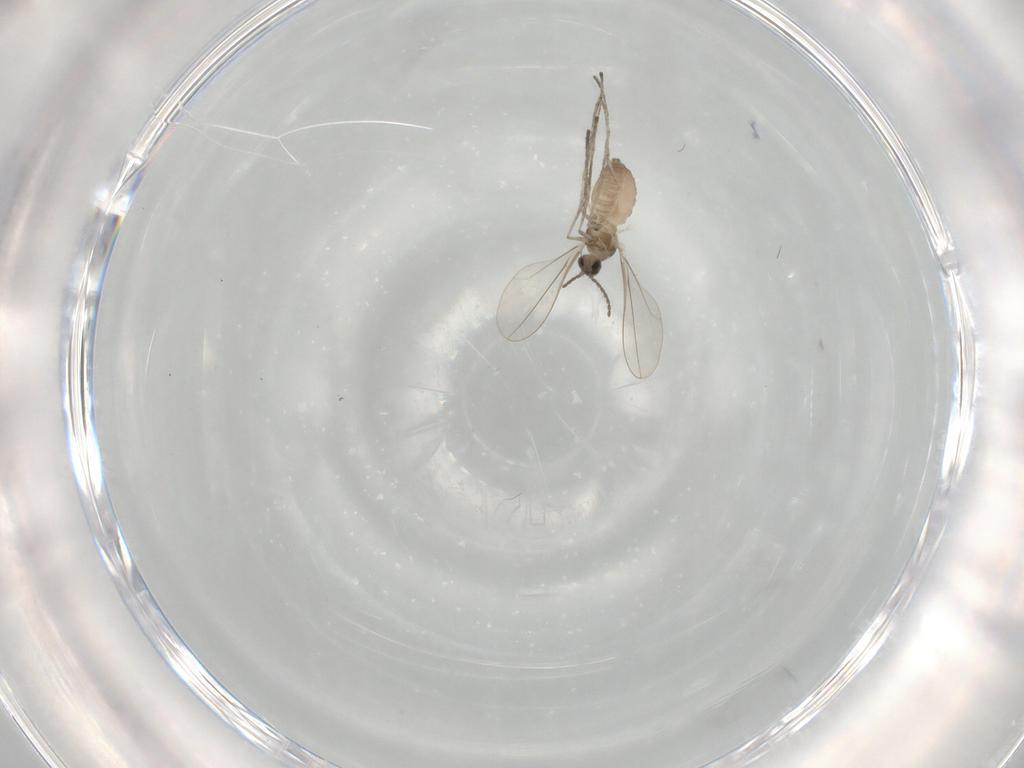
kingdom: Animalia
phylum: Arthropoda
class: Insecta
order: Diptera
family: Cecidomyiidae
